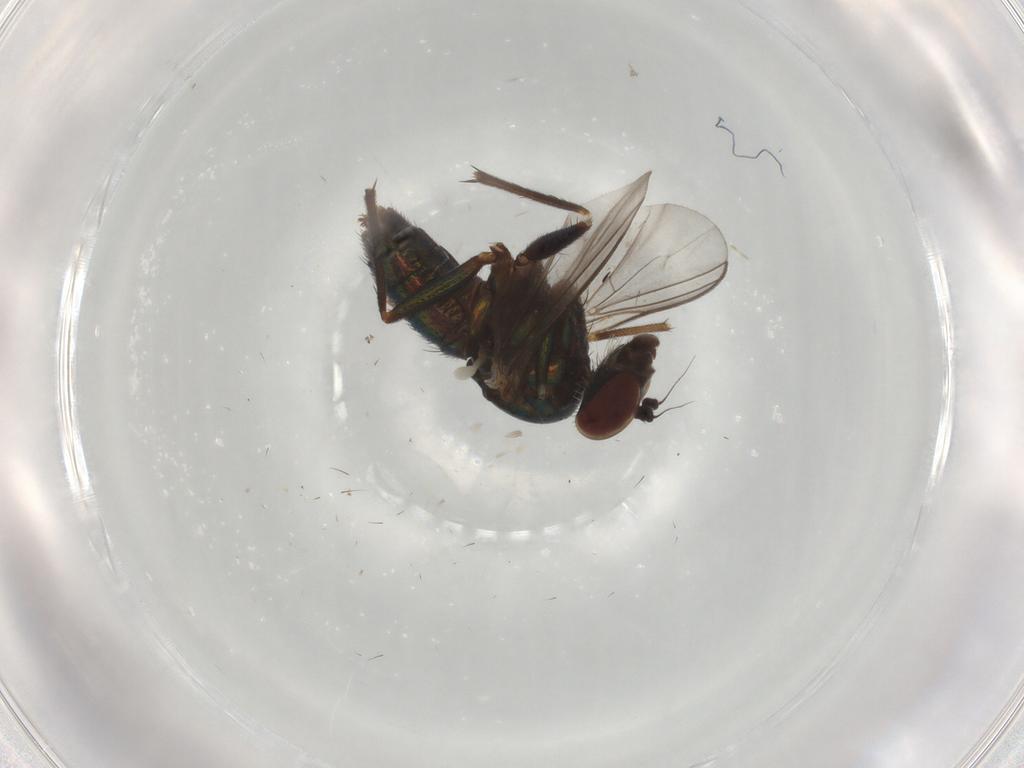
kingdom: Animalia
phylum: Arthropoda
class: Insecta
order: Diptera
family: Dolichopodidae
